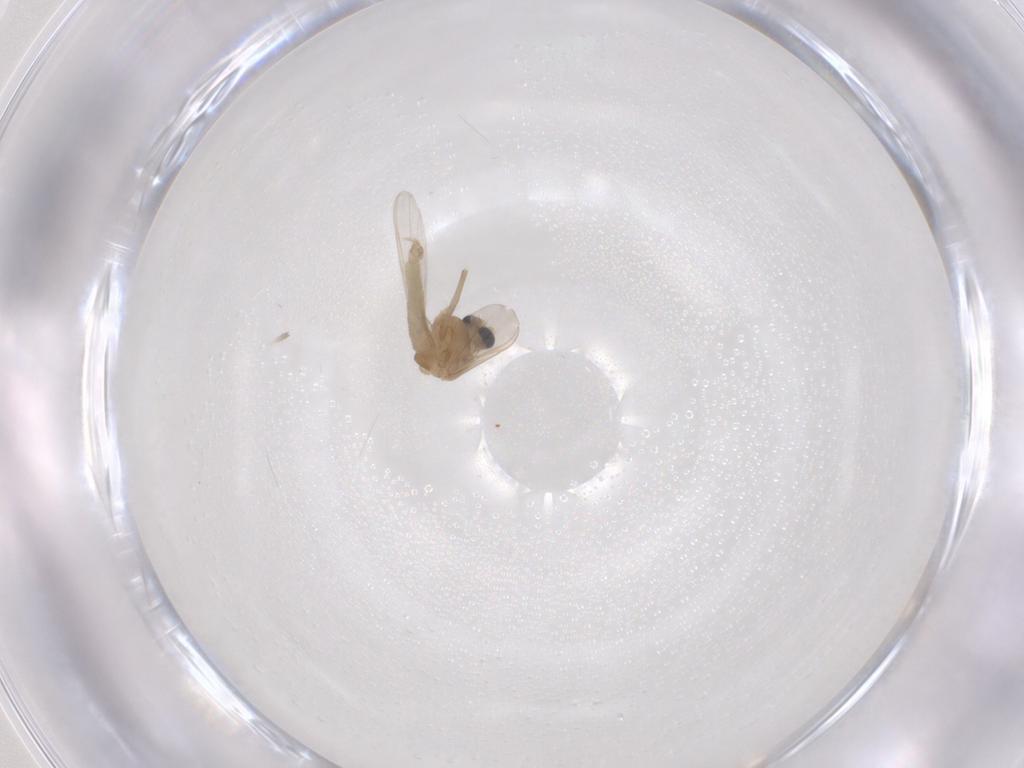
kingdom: Animalia
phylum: Arthropoda
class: Insecta
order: Diptera
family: Chironomidae
